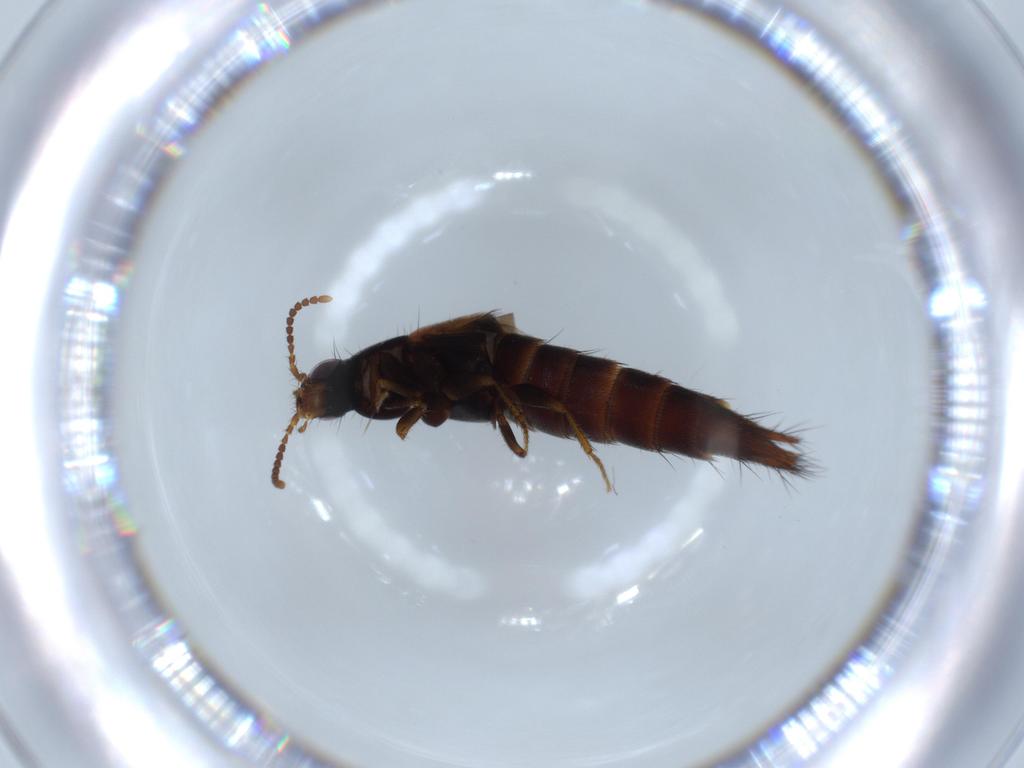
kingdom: Animalia
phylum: Arthropoda
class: Insecta
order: Coleoptera
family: Staphylinidae
